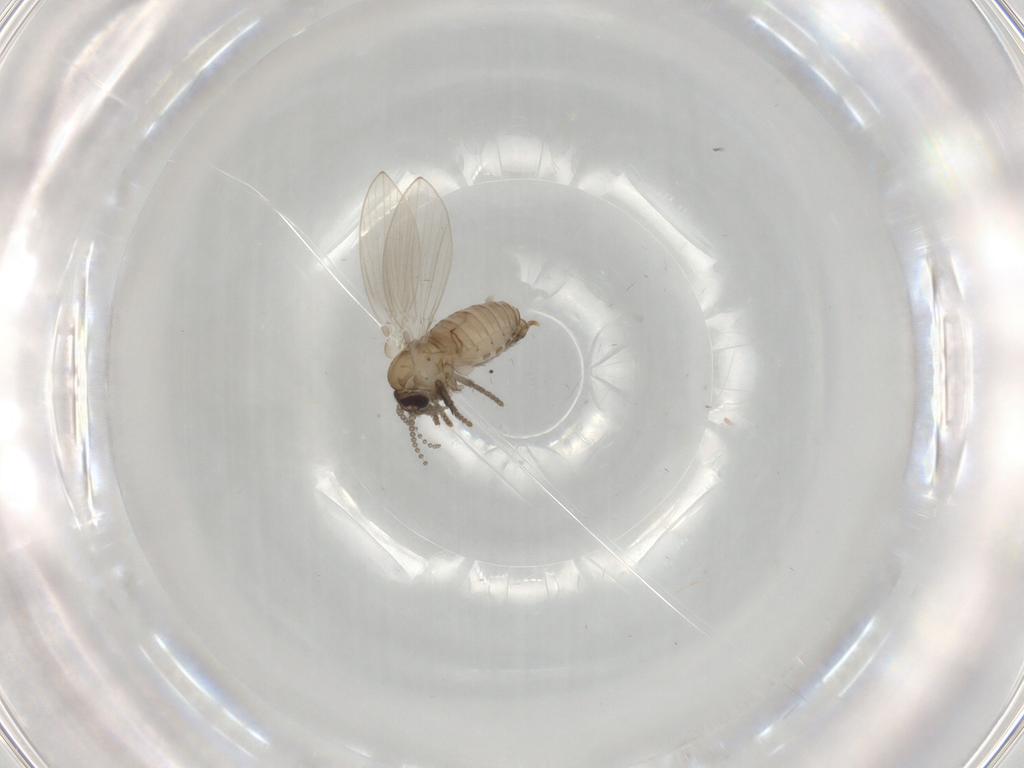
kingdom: Animalia
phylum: Arthropoda
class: Insecta
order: Diptera
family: Psychodidae
